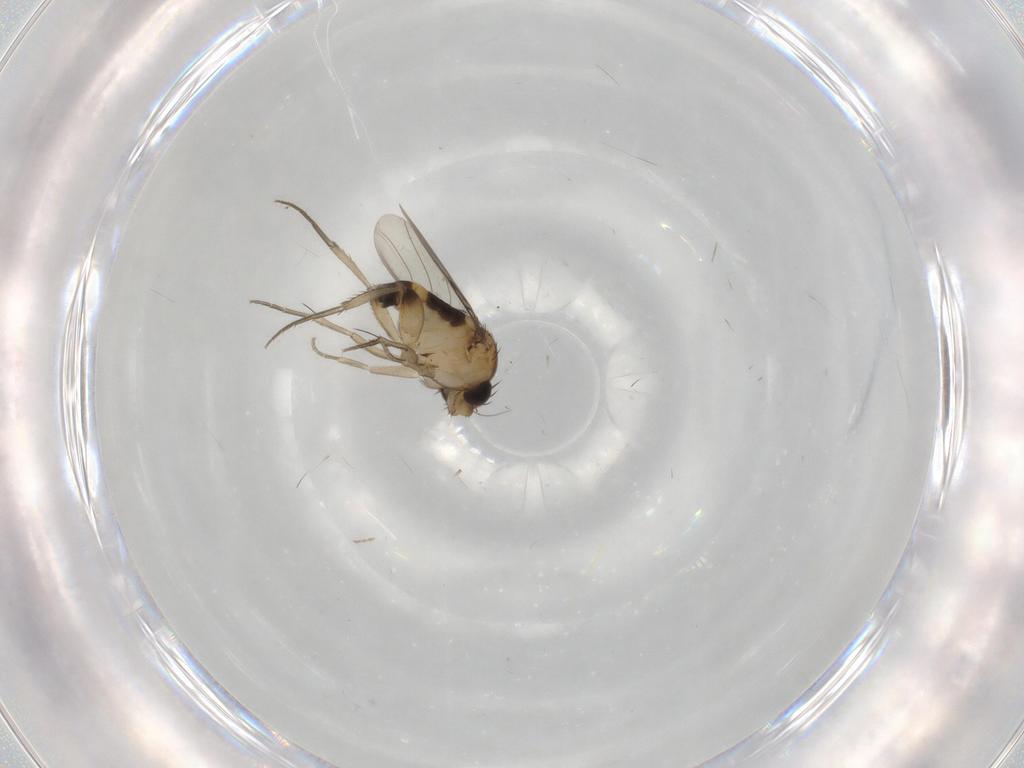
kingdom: Animalia
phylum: Arthropoda
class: Insecta
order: Diptera
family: Phoridae
